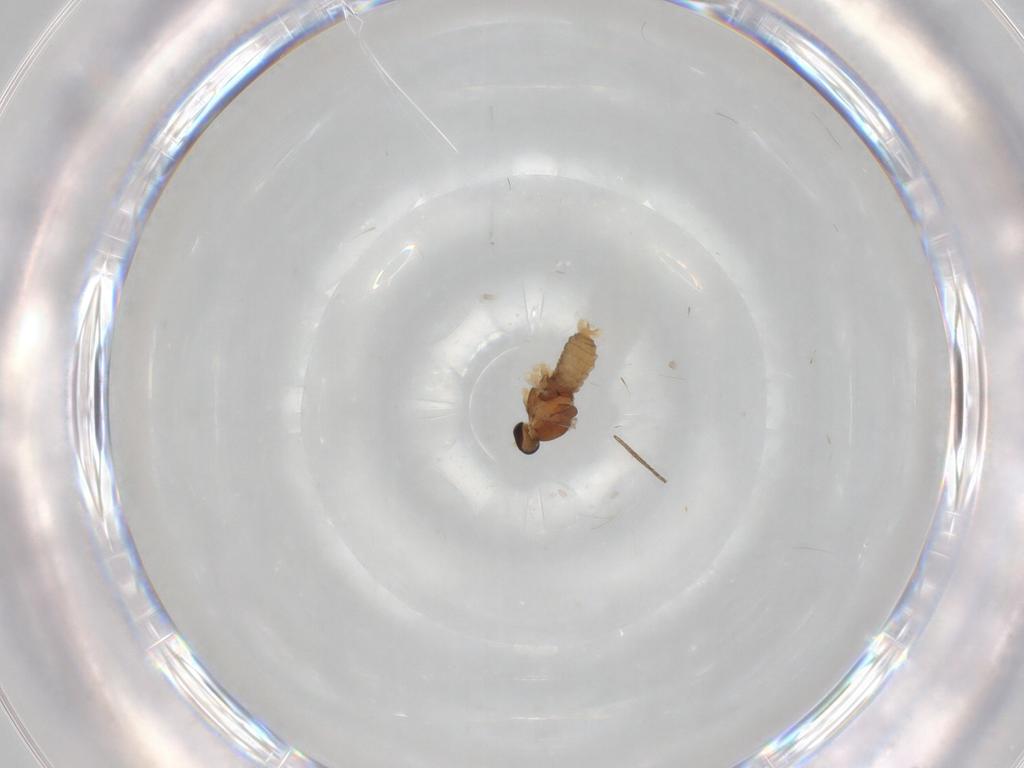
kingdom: Animalia
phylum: Arthropoda
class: Insecta
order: Diptera
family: Cecidomyiidae
